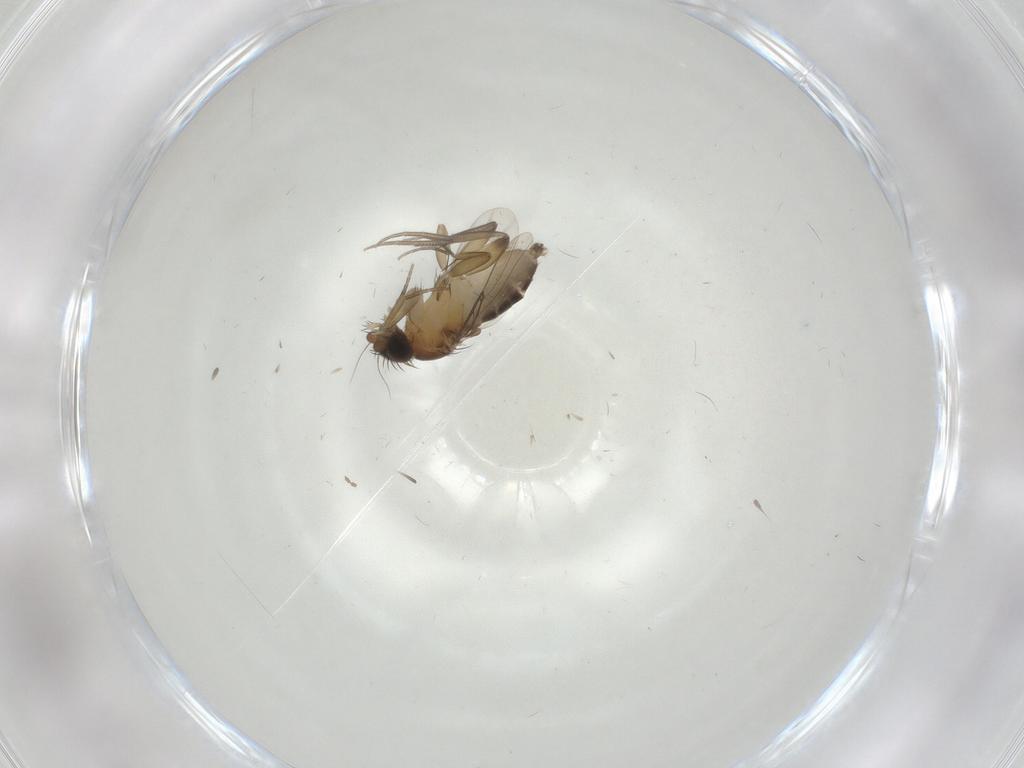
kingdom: Animalia
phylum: Arthropoda
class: Insecta
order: Diptera
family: Phoridae
